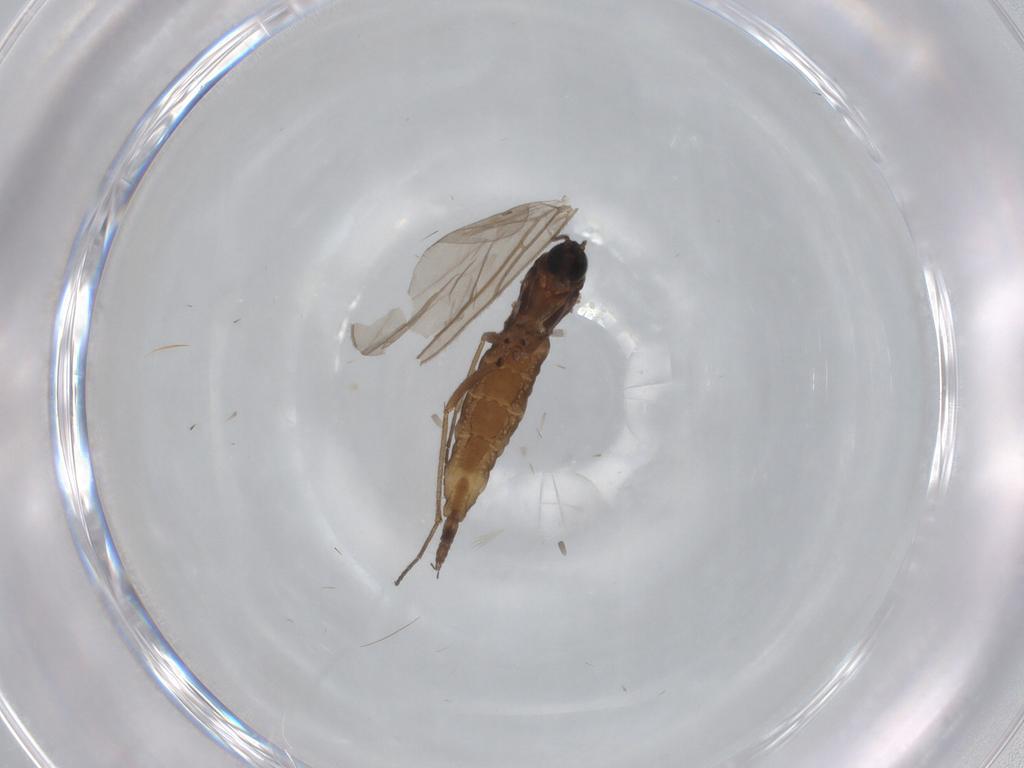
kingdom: Animalia
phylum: Arthropoda
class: Insecta
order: Diptera
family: Sciaridae
